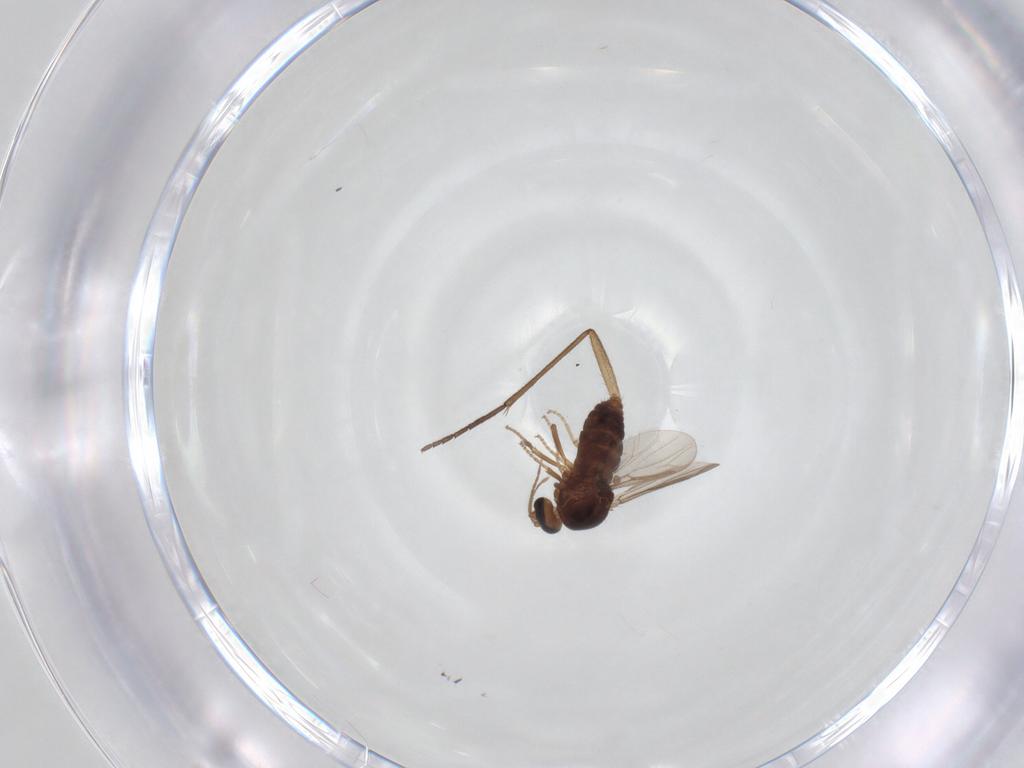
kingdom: Animalia
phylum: Arthropoda
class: Insecta
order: Diptera
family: Sciaridae
